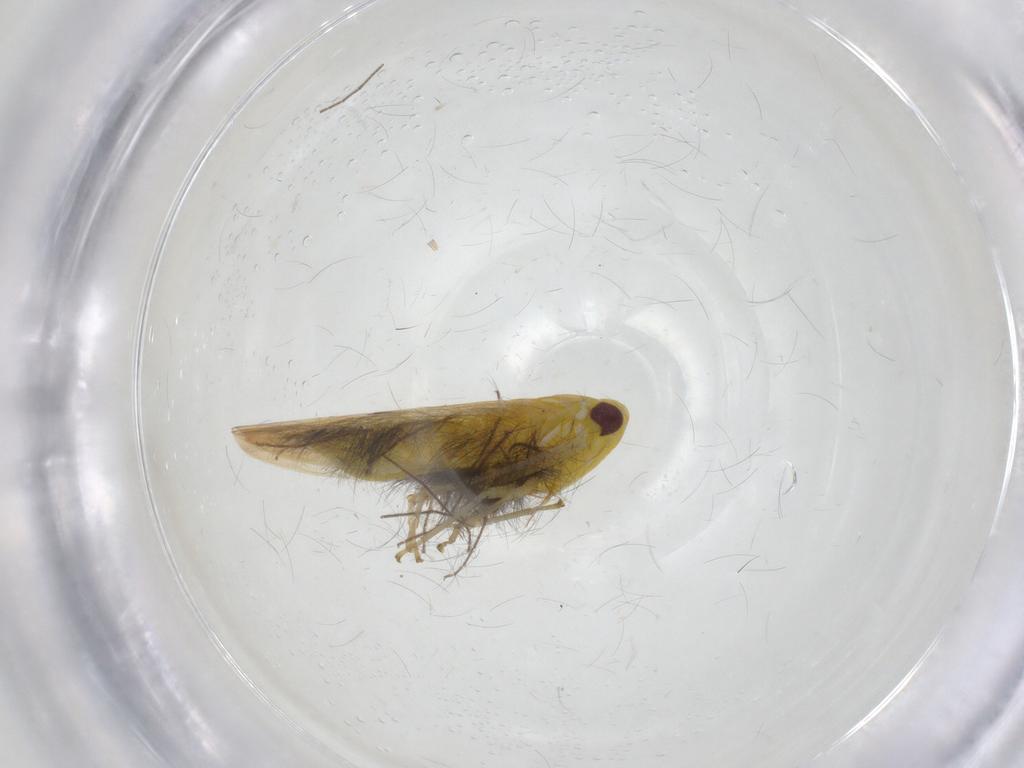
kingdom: Animalia
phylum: Arthropoda
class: Insecta
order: Hemiptera
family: Cicadellidae
